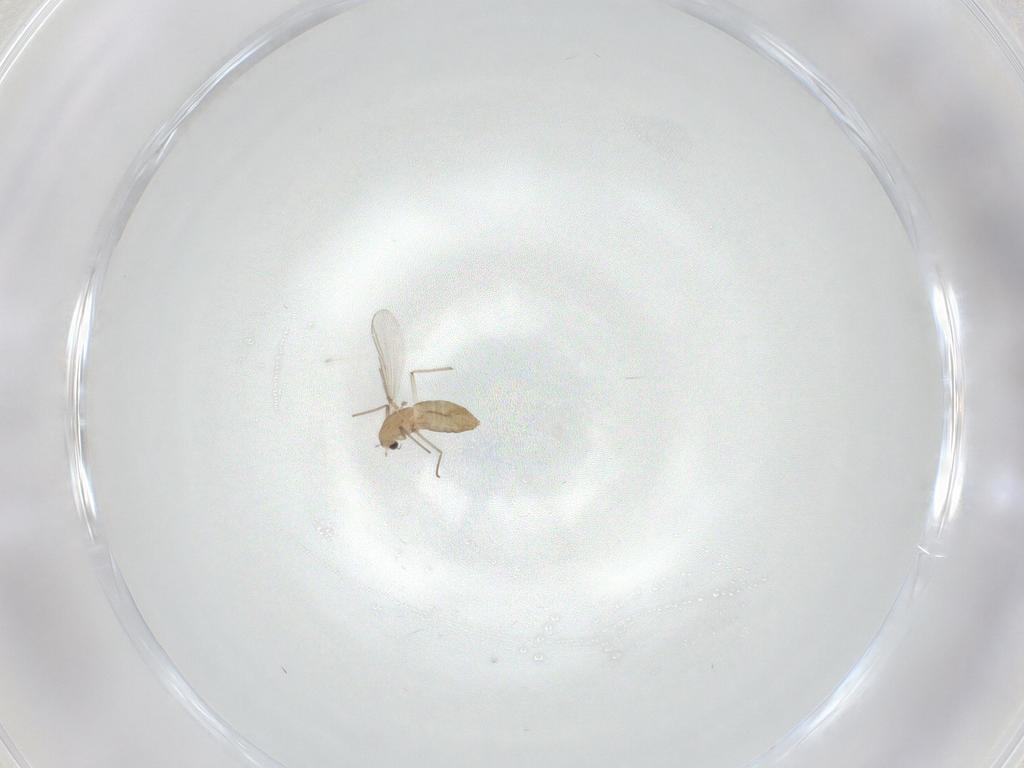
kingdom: Animalia
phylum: Arthropoda
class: Insecta
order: Diptera
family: Chironomidae
